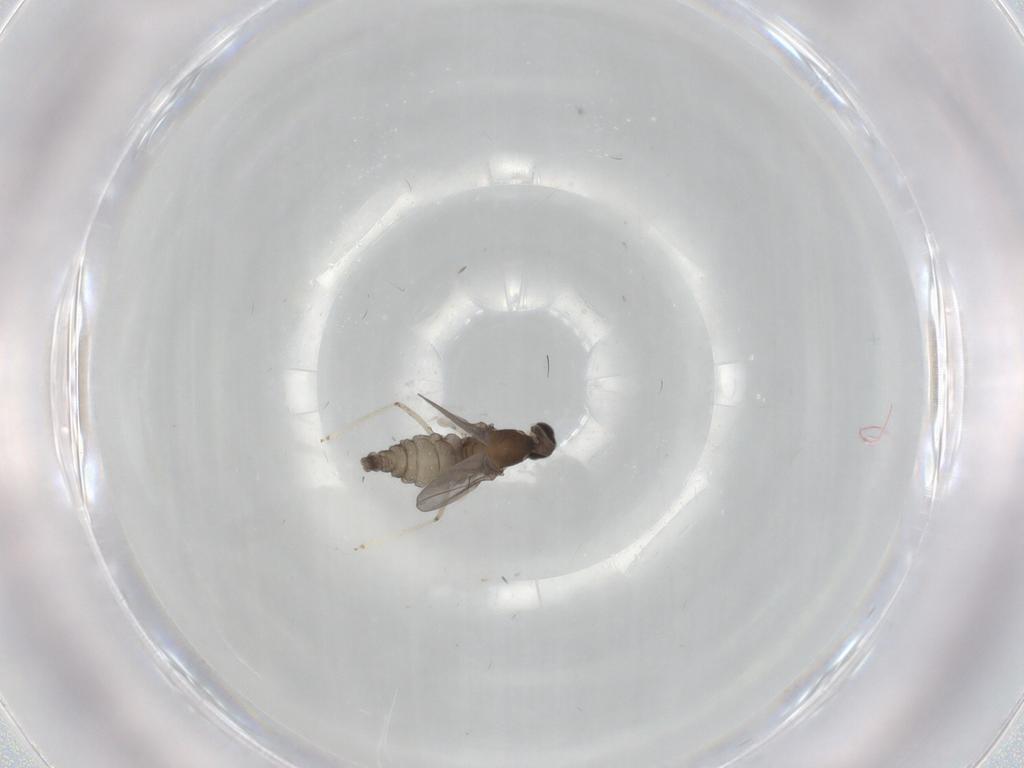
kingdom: Animalia
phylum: Arthropoda
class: Insecta
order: Diptera
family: Cecidomyiidae
